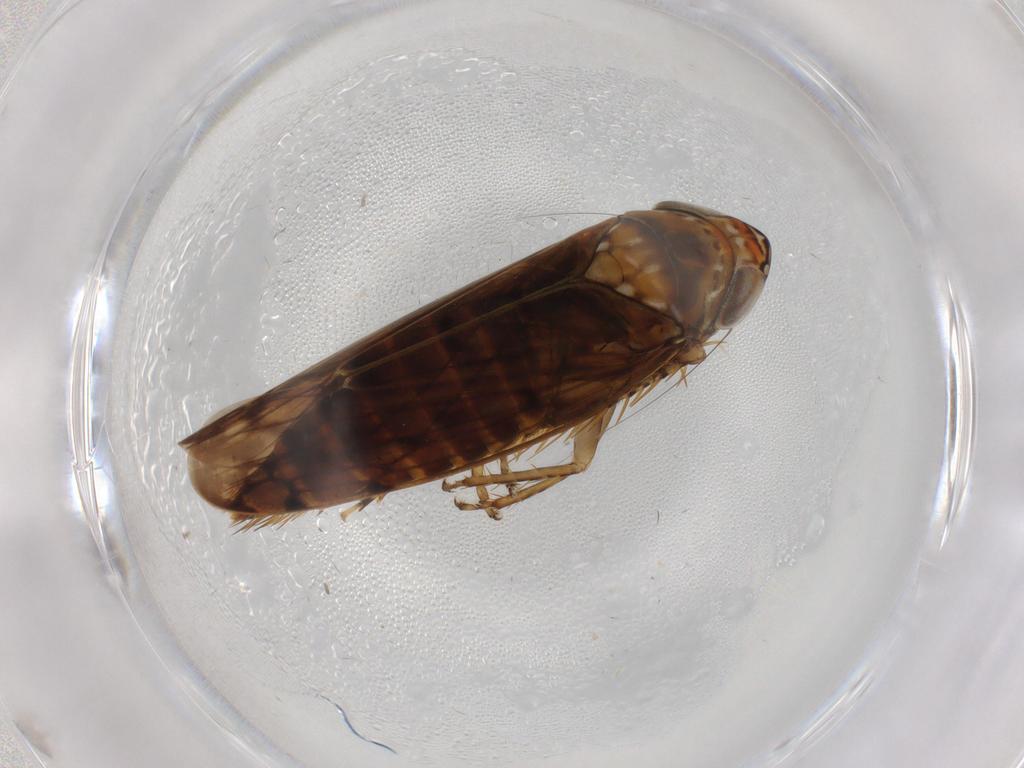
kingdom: Animalia
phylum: Arthropoda
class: Insecta
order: Hemiptera
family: Cicadellidae
